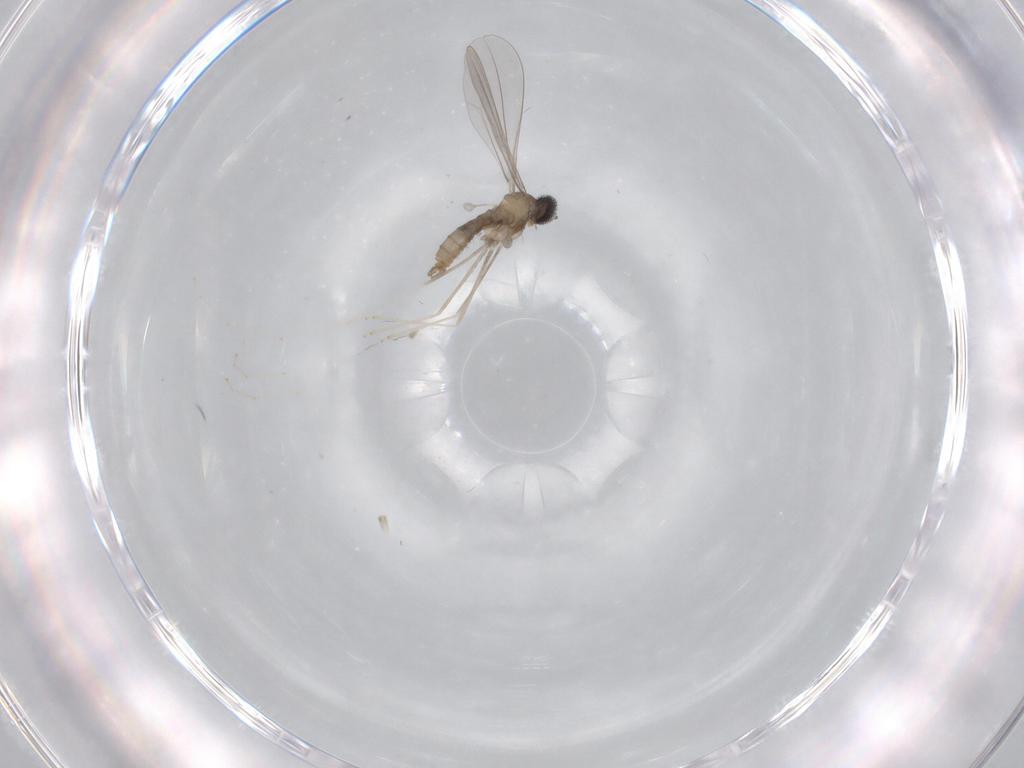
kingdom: Animalia
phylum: Arthropoda
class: Insecta
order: Diptera
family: Cecidomyiidae
